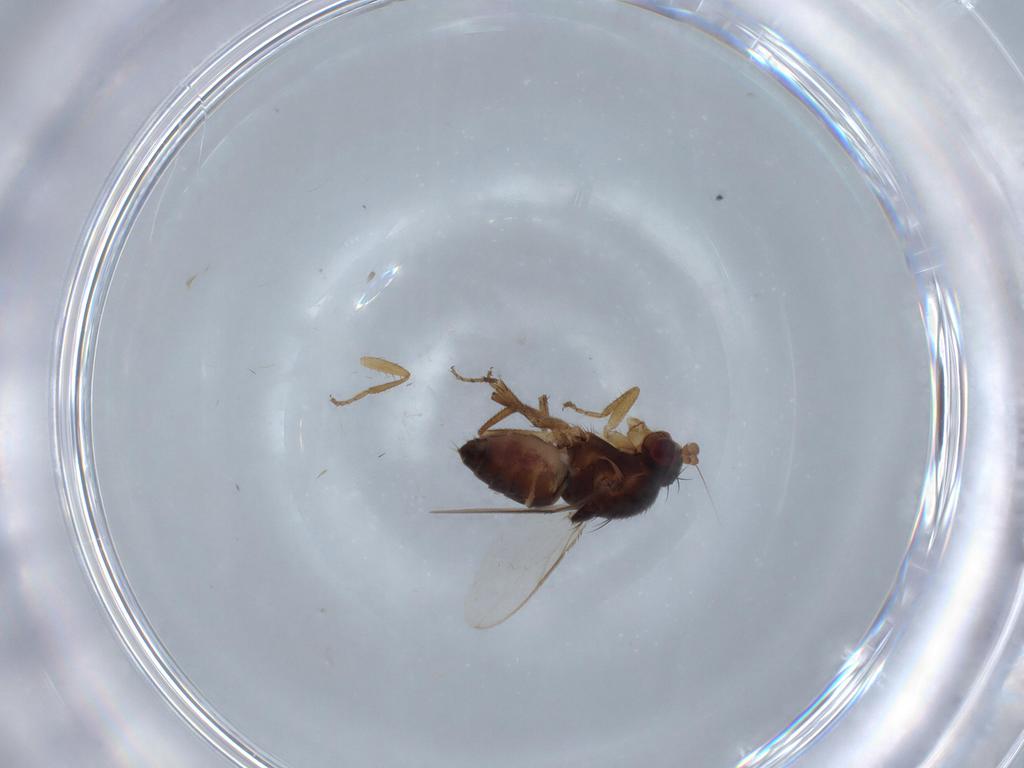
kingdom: Animalia
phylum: Arthropoda
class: Insecta
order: Diptera
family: Sphaeroceridae
